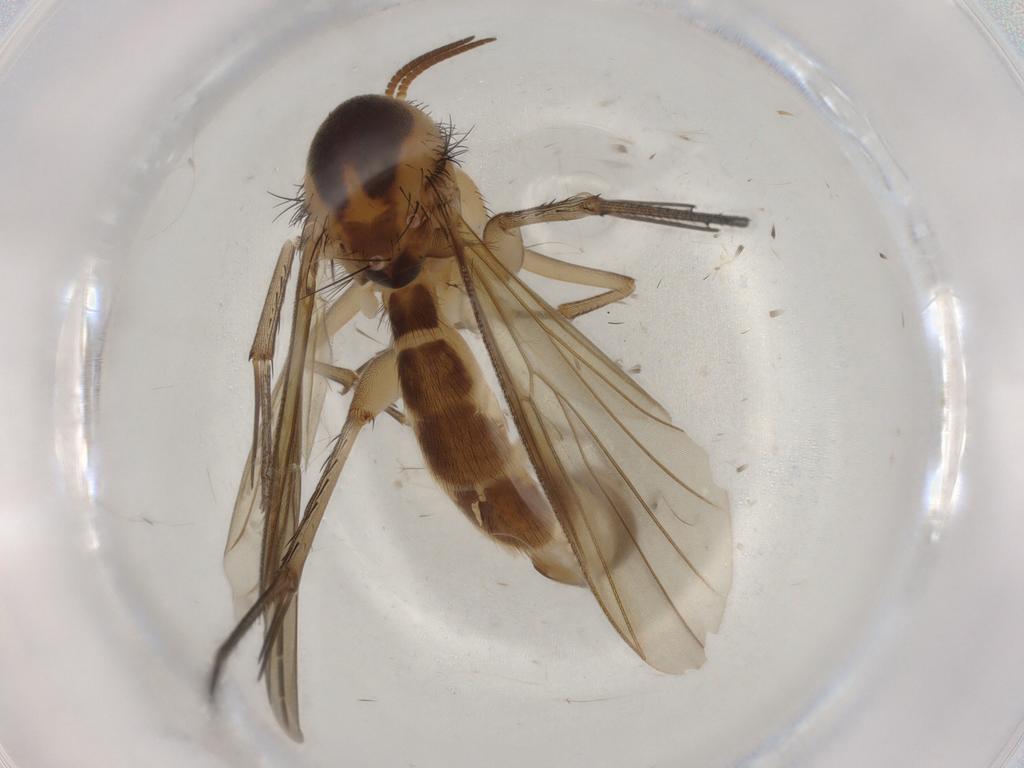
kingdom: Animalia
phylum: Arthropoda
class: Insecta
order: Diptera
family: Mycetophilidae
